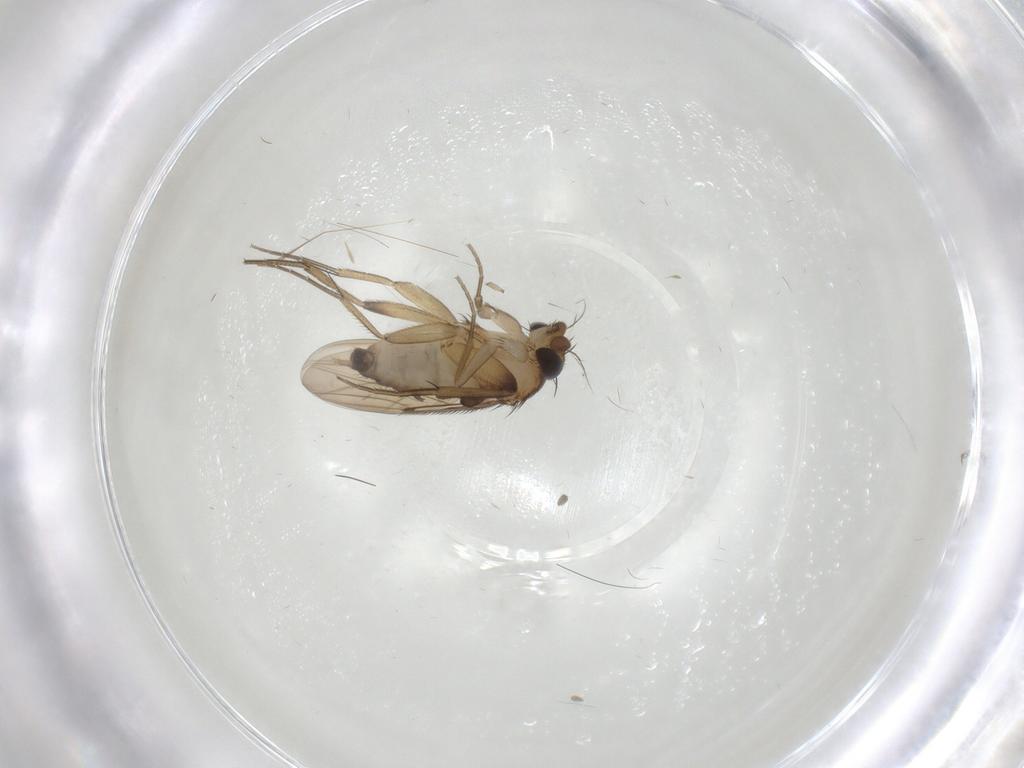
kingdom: Animalia
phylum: Arthropoda
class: Insecta
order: Diptera
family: Phoridae
